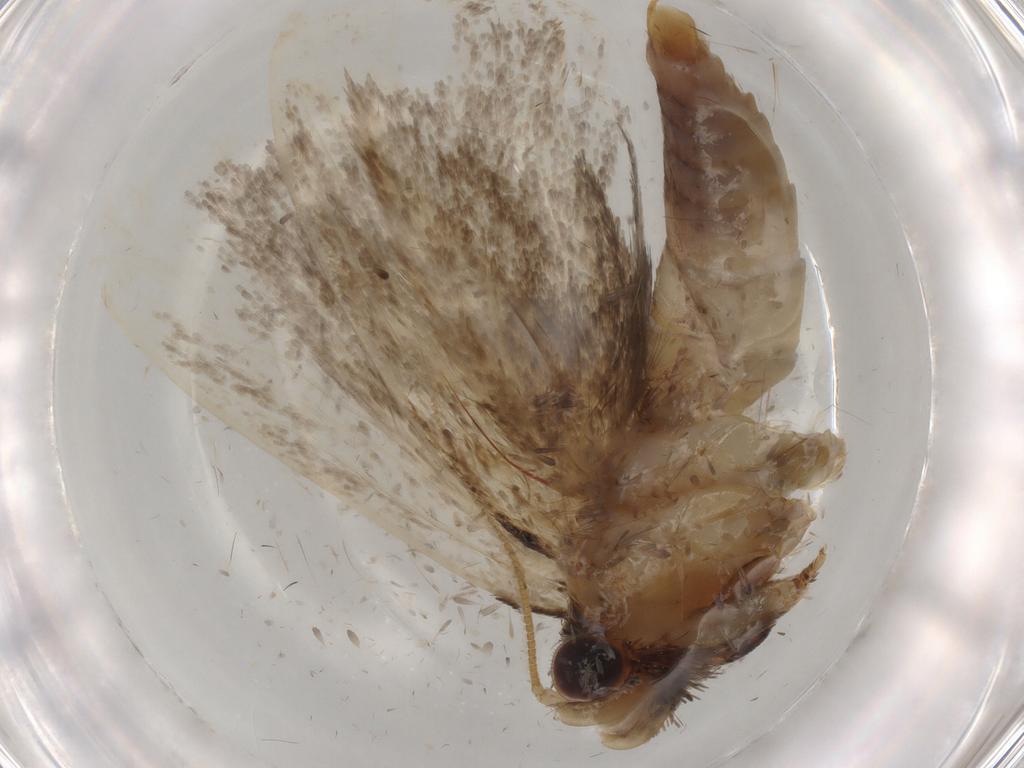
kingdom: Animalia
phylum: Arthropoda
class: Insecta
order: Lepidoptera
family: Tineidae
